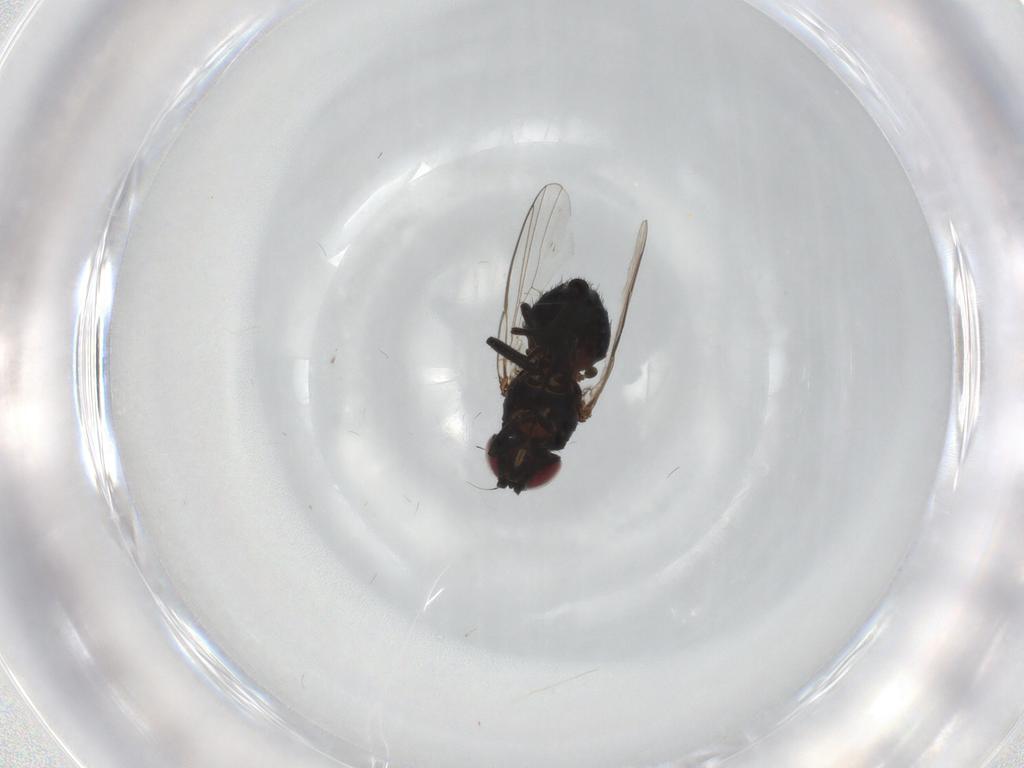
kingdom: Animalia
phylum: Arthropoda
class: Insecta
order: Diptera
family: Agromyzidae
